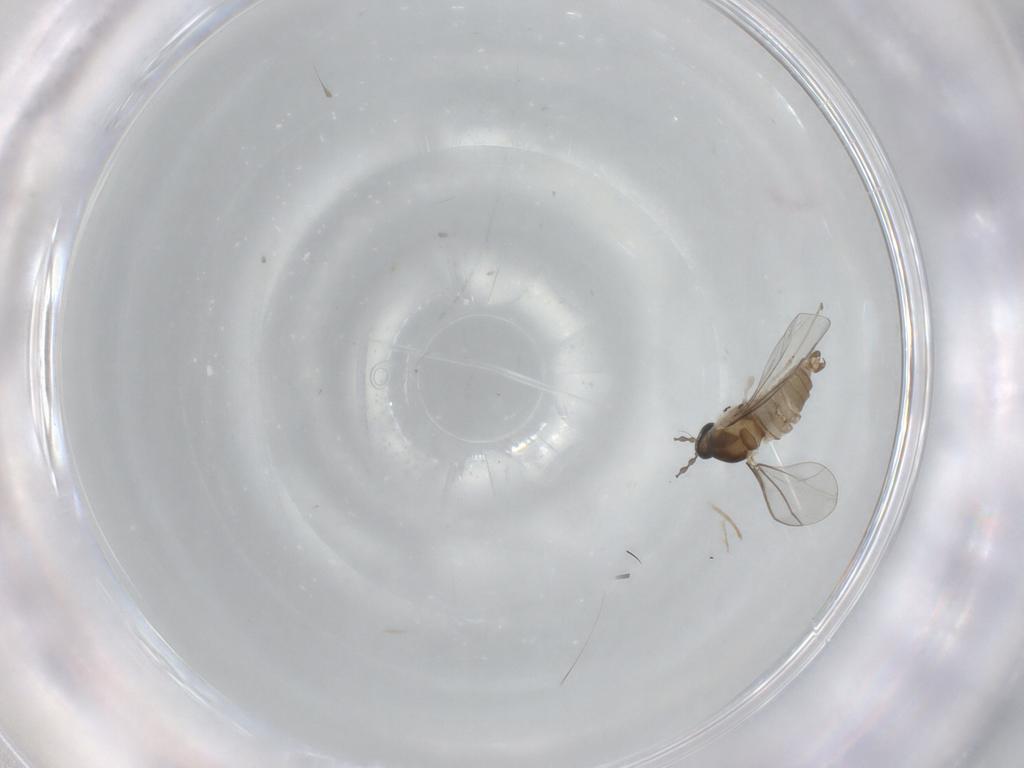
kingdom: Animalia
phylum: Arthropoda
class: Insecta
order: Diptera
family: Cecidomyiidae
